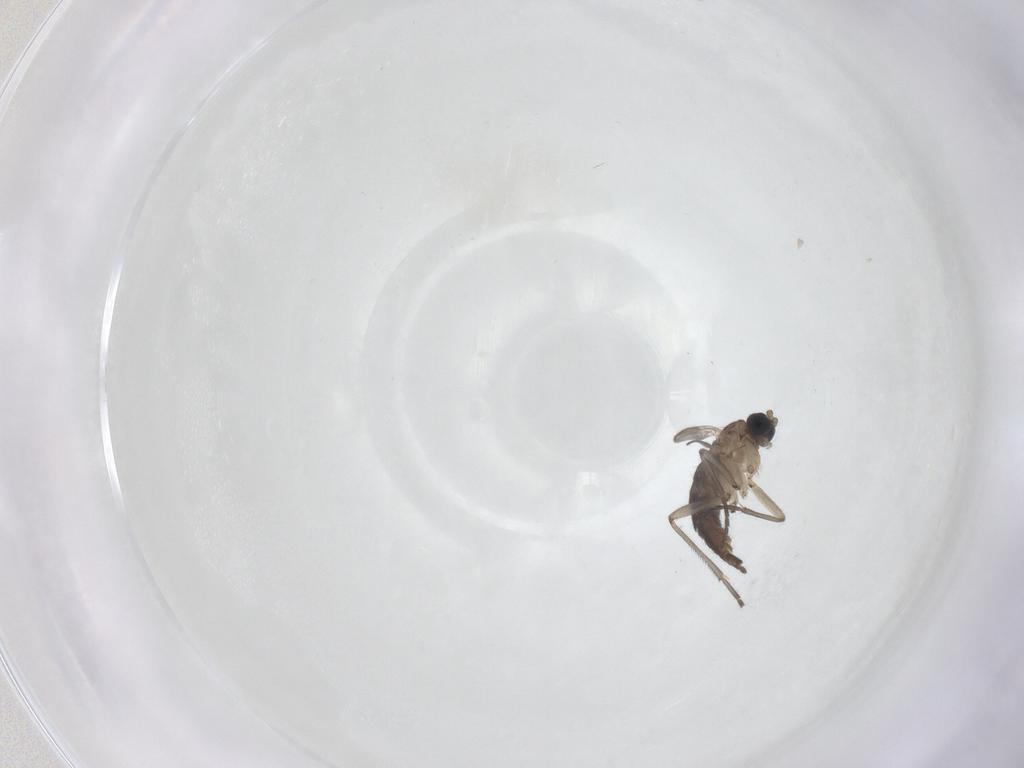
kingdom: Animalia
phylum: Arthropoda
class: Insecta
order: Diptera
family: Sciaridae
